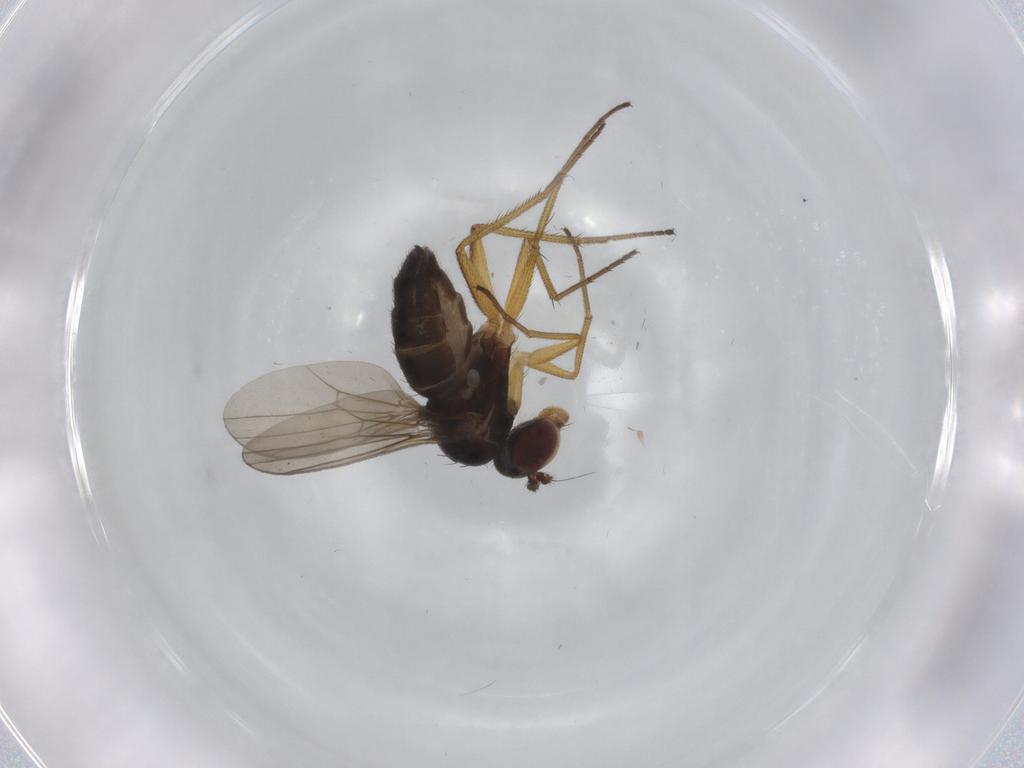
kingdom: Animalia
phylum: Arthropoda
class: Insecta
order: Diptera
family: Dolichopodidae
